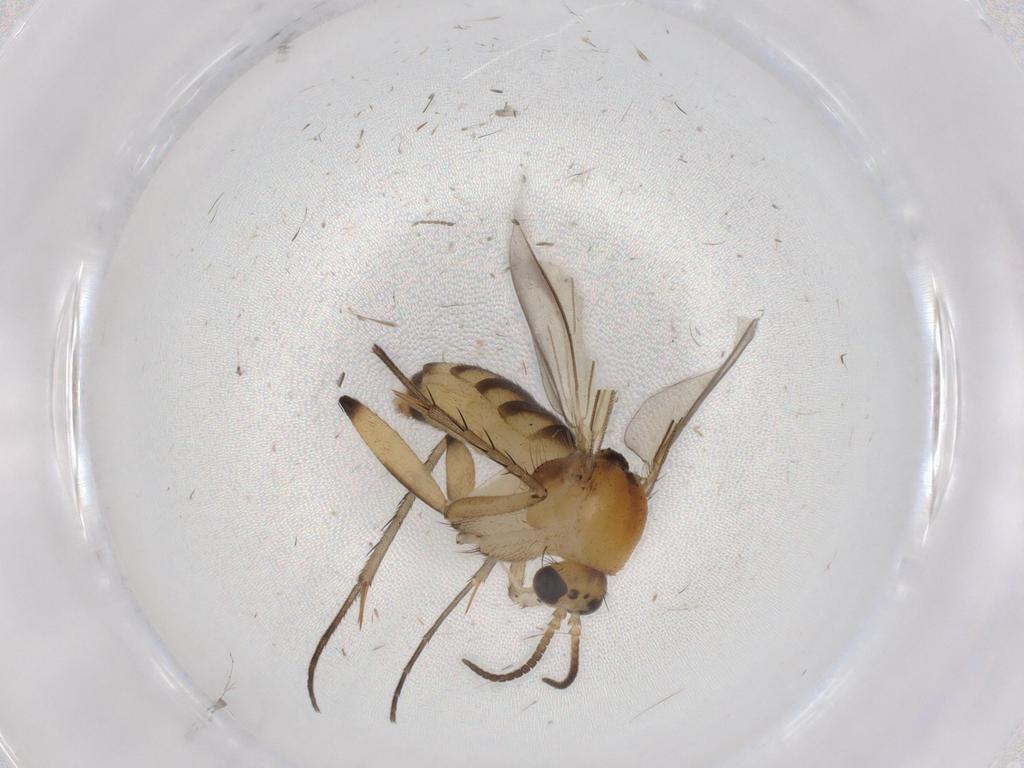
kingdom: Animalia
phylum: Arthropoda
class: Insecta
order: Diptera
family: Mycetophilidae
